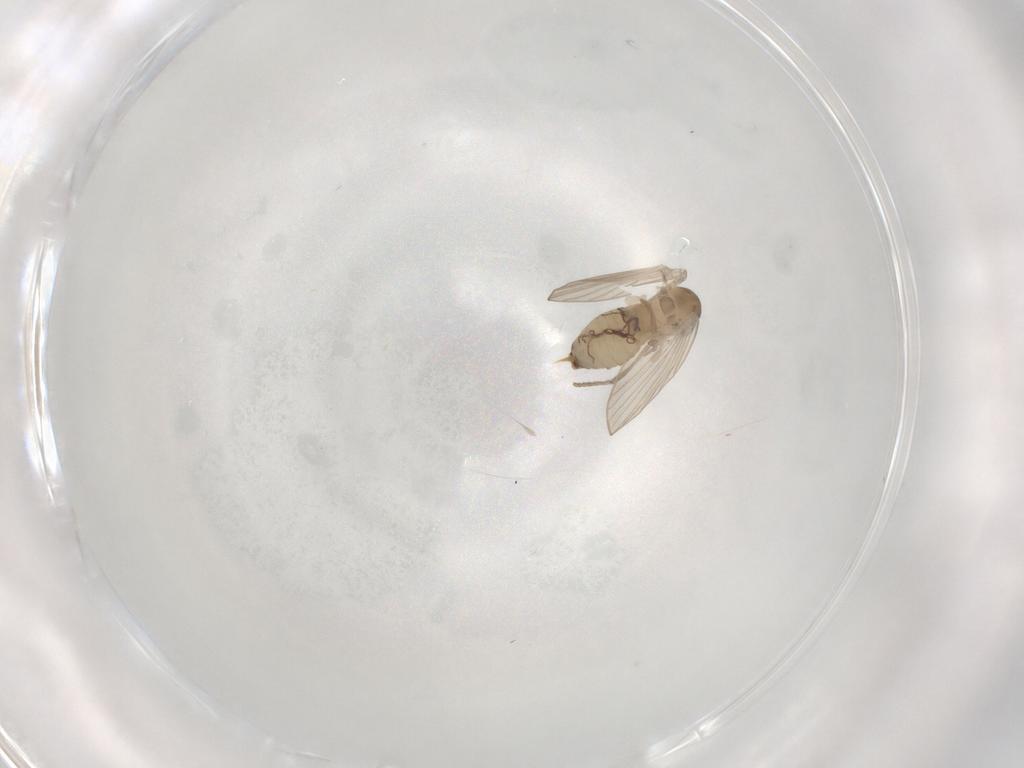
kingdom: Animalia
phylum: Arthropoda
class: Insecta
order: Diptera
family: Psychodidae
